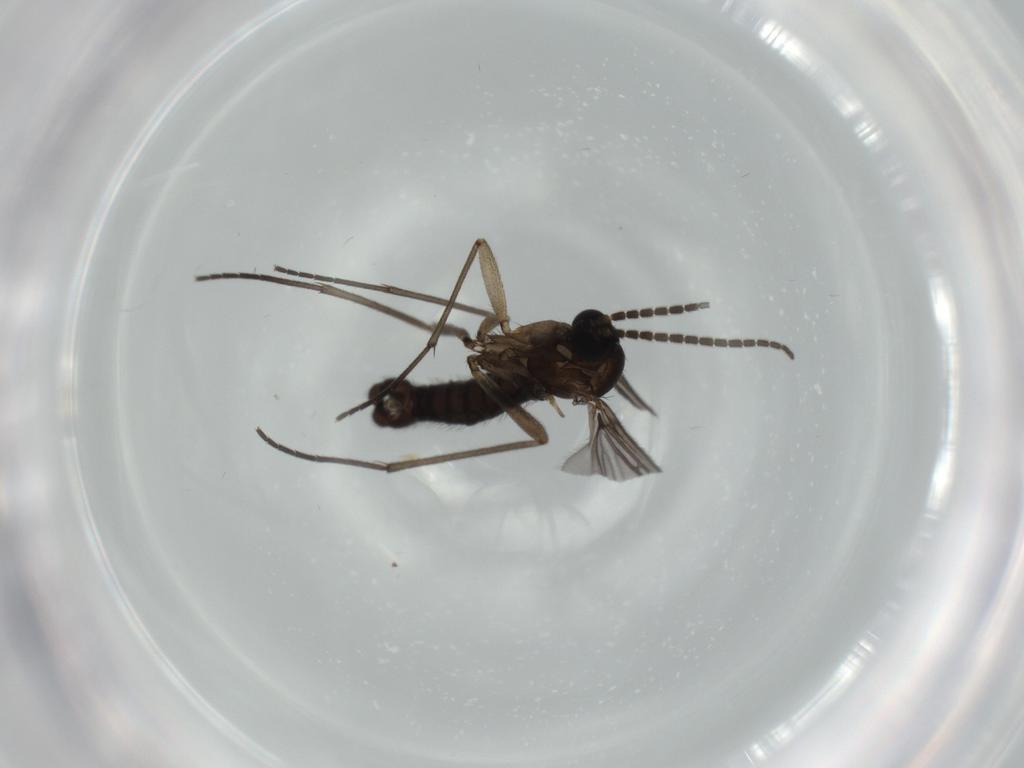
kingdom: Animalia
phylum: Arthropoda
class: Insecta
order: Diptera
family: Sciaridae
